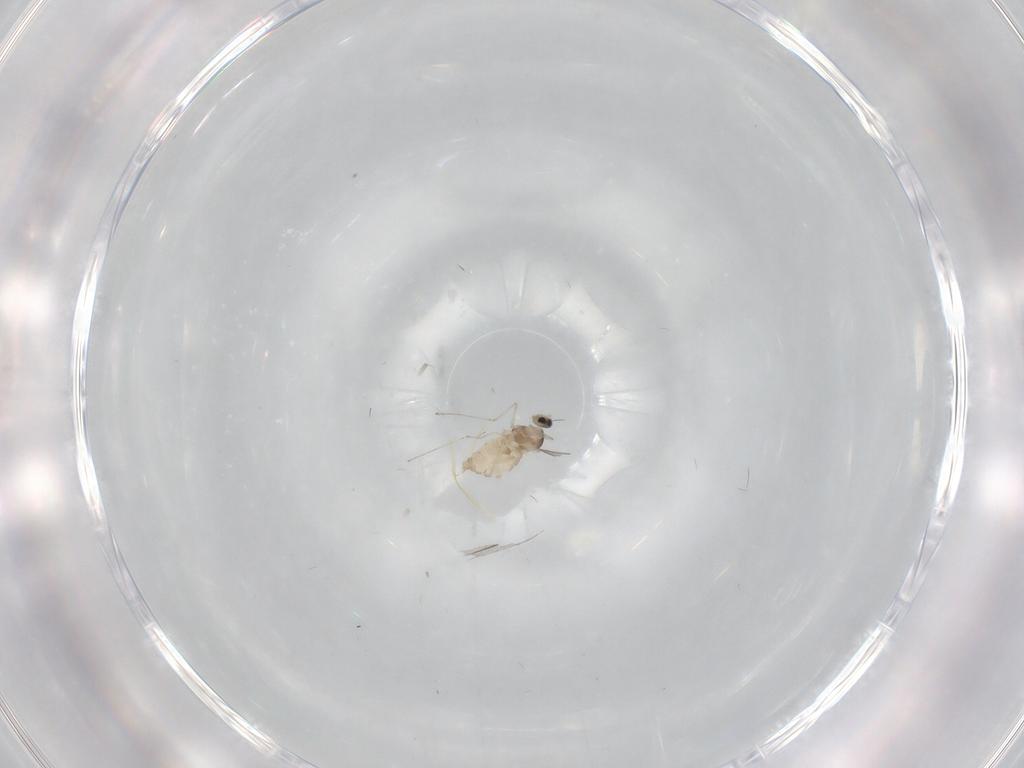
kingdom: Animalia
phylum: Arthropoda
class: Insecta
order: Diptera
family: Cecidomyiidae
